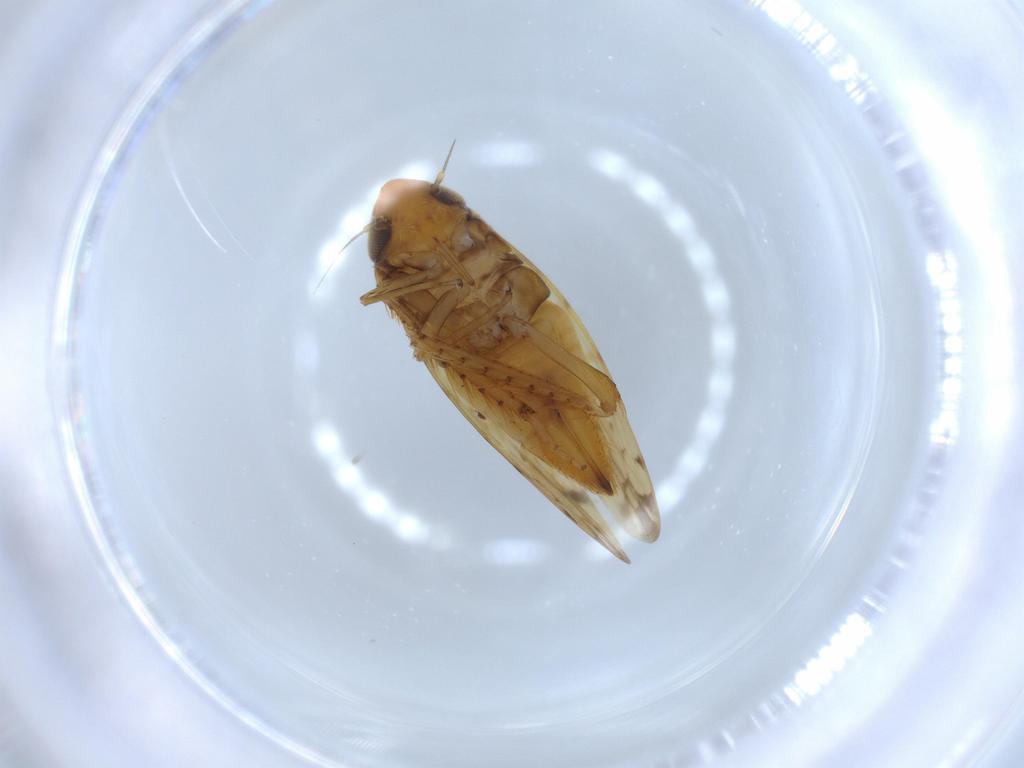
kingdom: Animalia
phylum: Arthropoda
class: Insecta
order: Hemiptera
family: Cicadellidae
